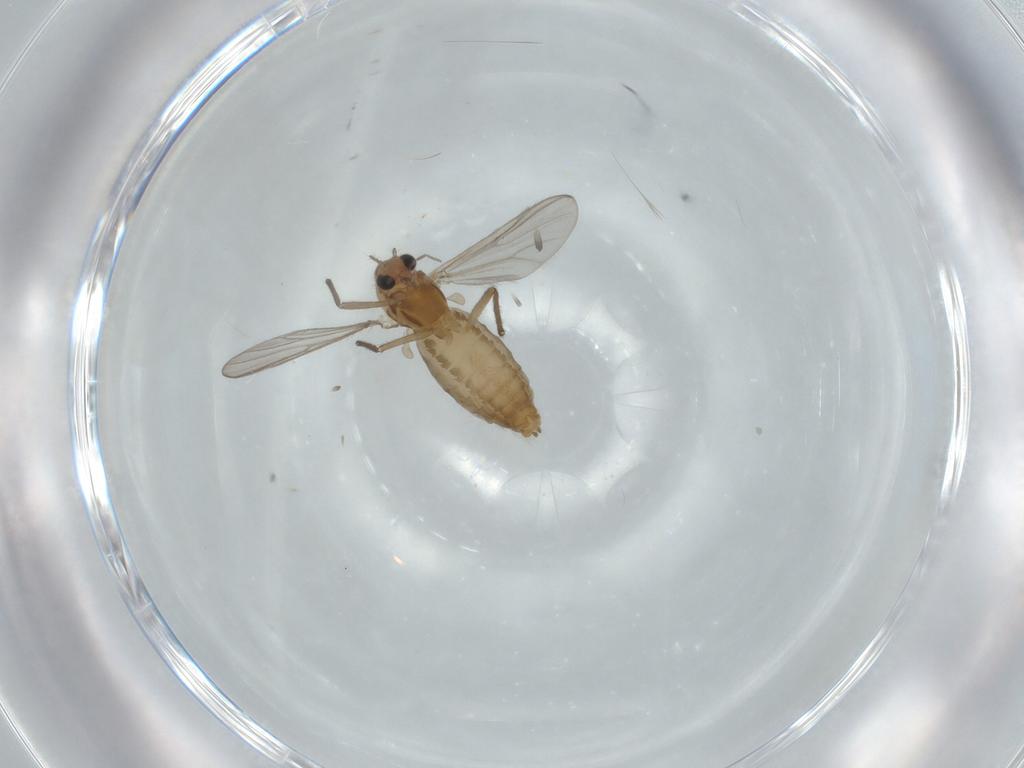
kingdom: Animalia
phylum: Arthropoda
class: Insecta
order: Diptera
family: Chironomidae
